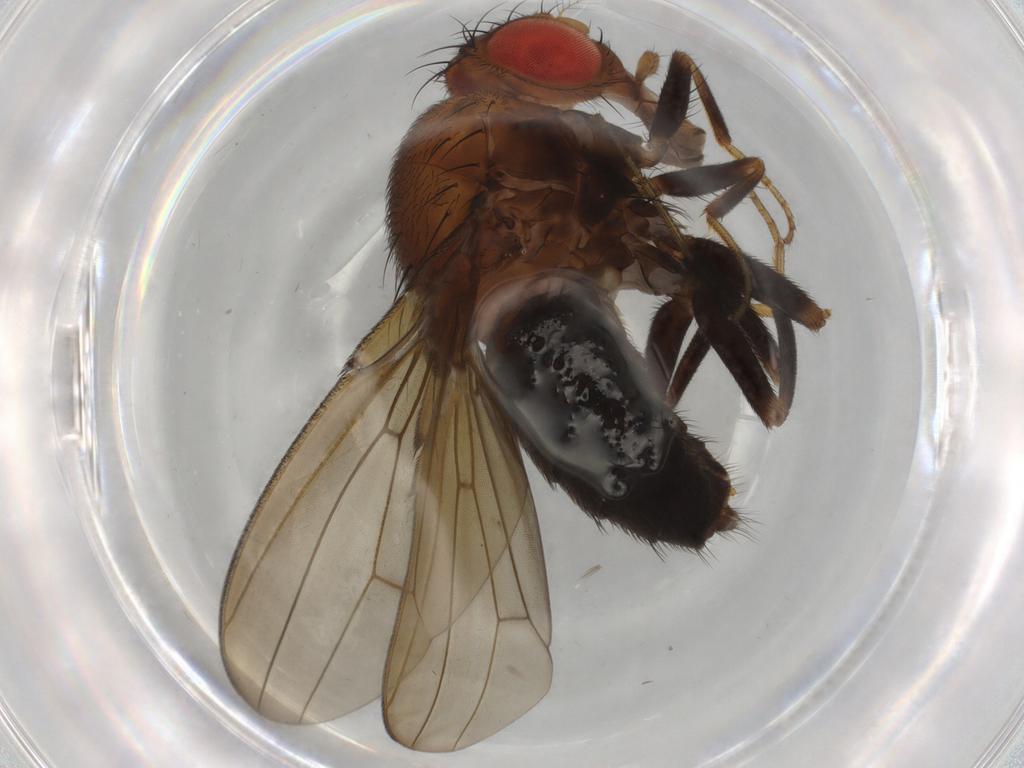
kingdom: Animalia
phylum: Arthropoda
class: Insecta
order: Diptera
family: Drosophilidae
